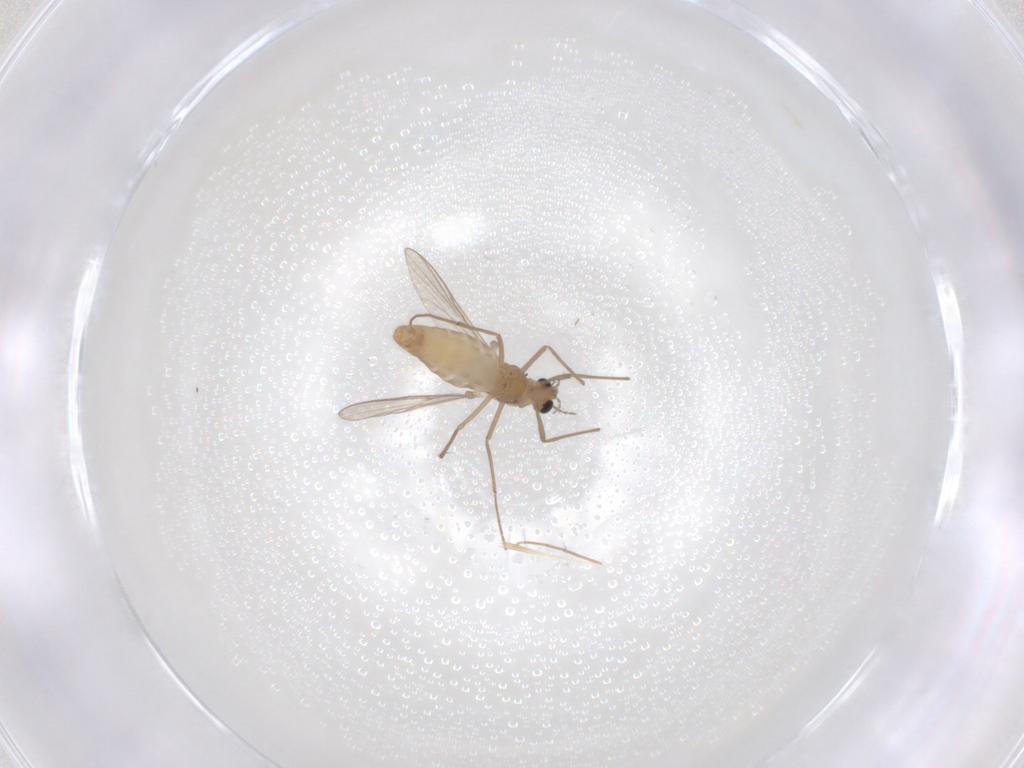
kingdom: Animalia
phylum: Arthropoda
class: Insecta
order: Diptera
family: Chironomidae
